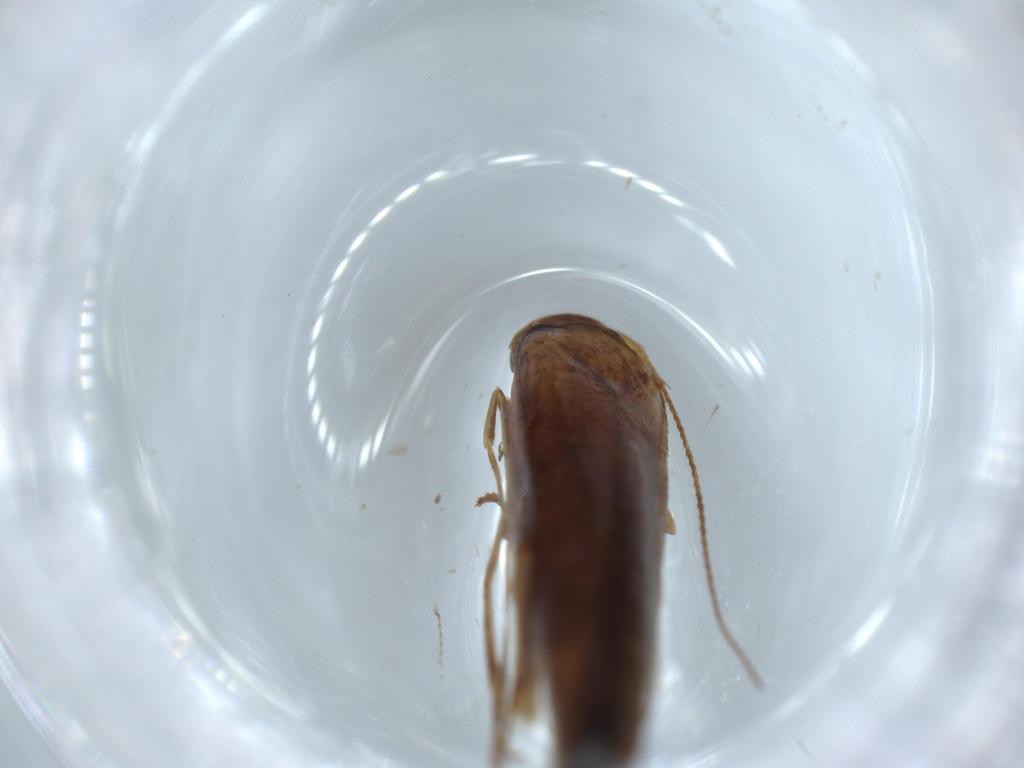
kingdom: Animalia
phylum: Arthropoda
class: Insecta
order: Lepidoptera
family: Stathmopodidae
